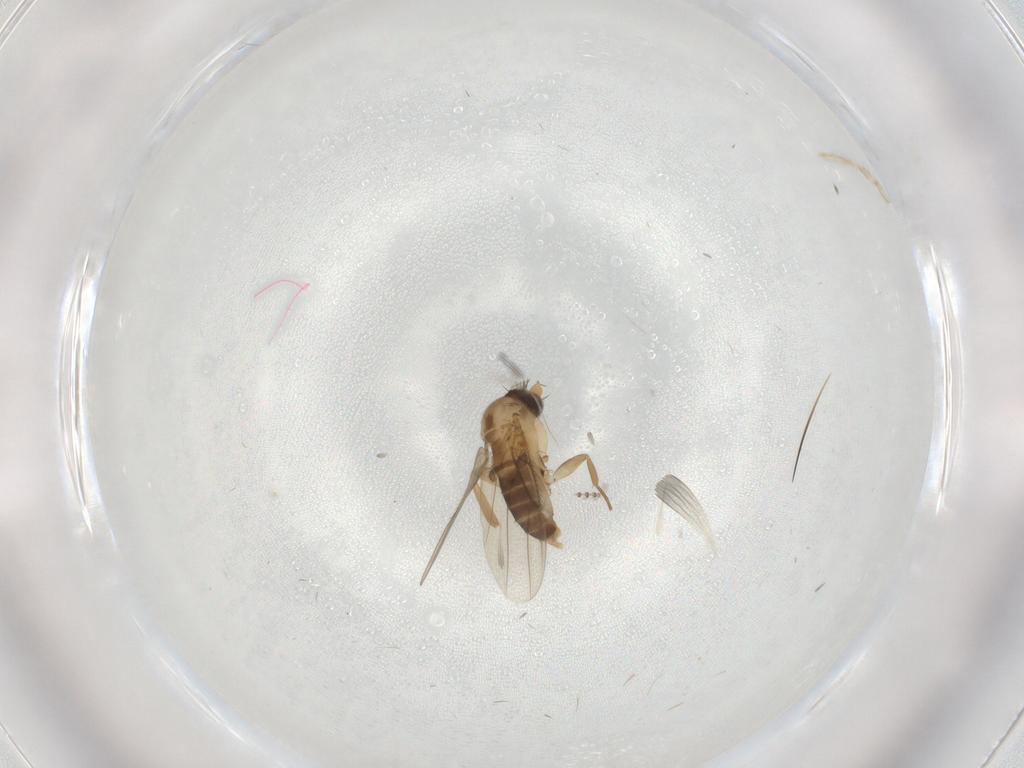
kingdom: Animalia
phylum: Arthropoda
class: Insecta
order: Diptera
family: Phoridae
